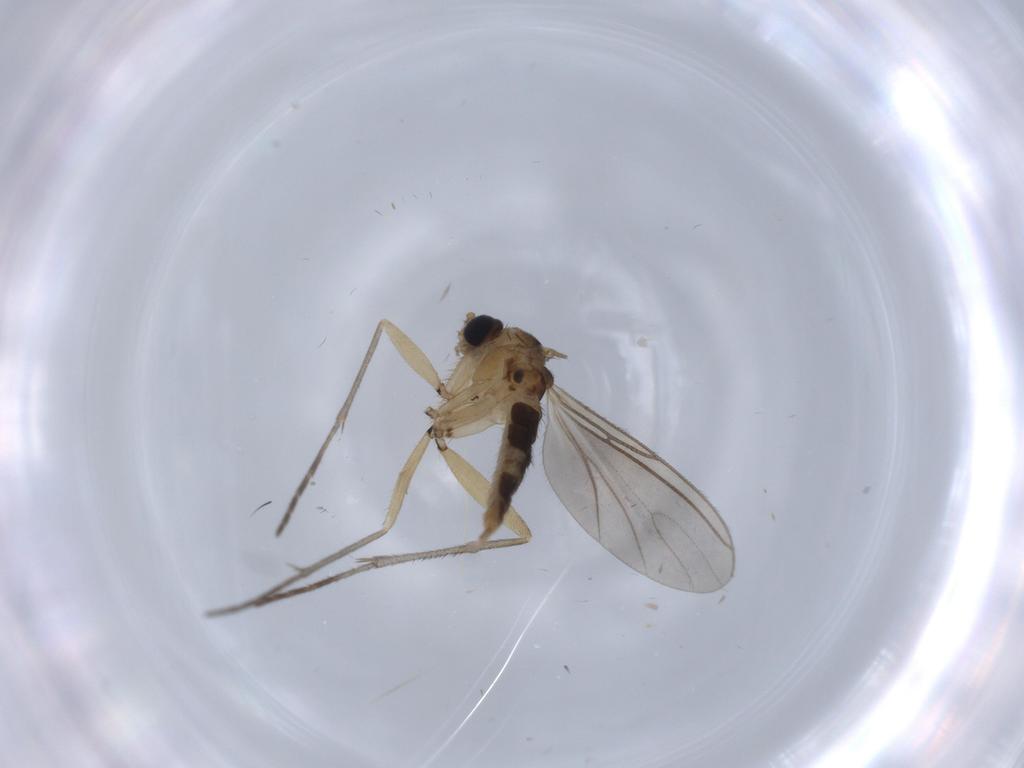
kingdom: Animalia
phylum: Arthropoda
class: Insecta
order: Diptera
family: Sciaridae
